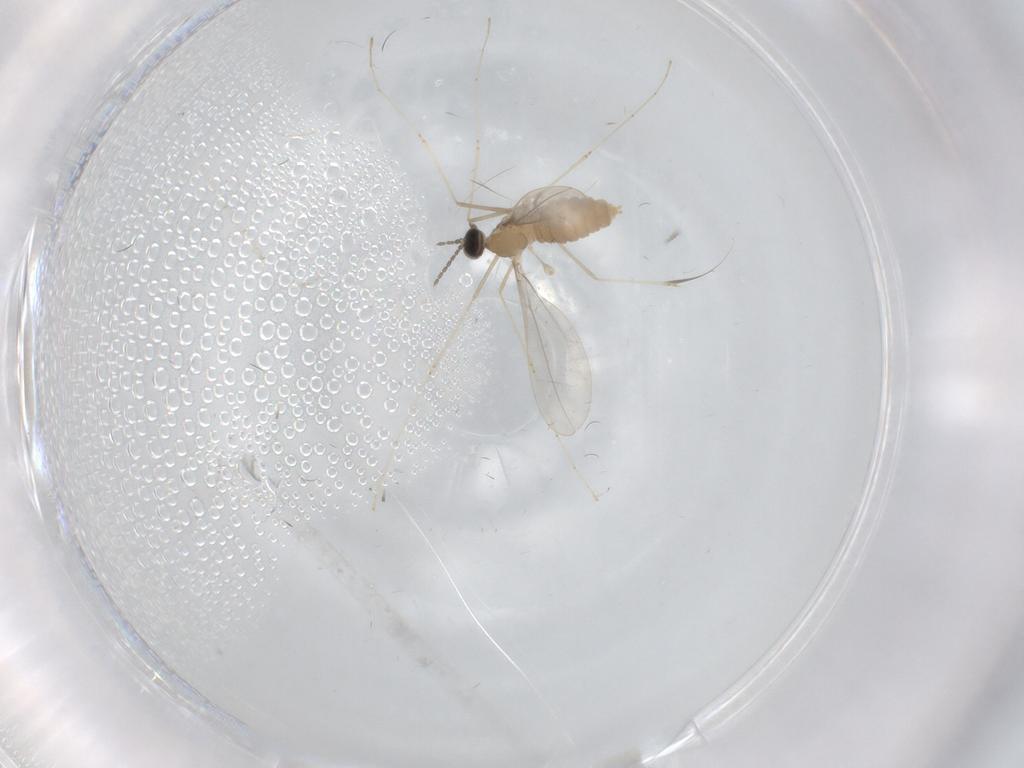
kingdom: Animalia
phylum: Arthropoda
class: Insecta
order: Diptera
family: Cecidomyiidae
